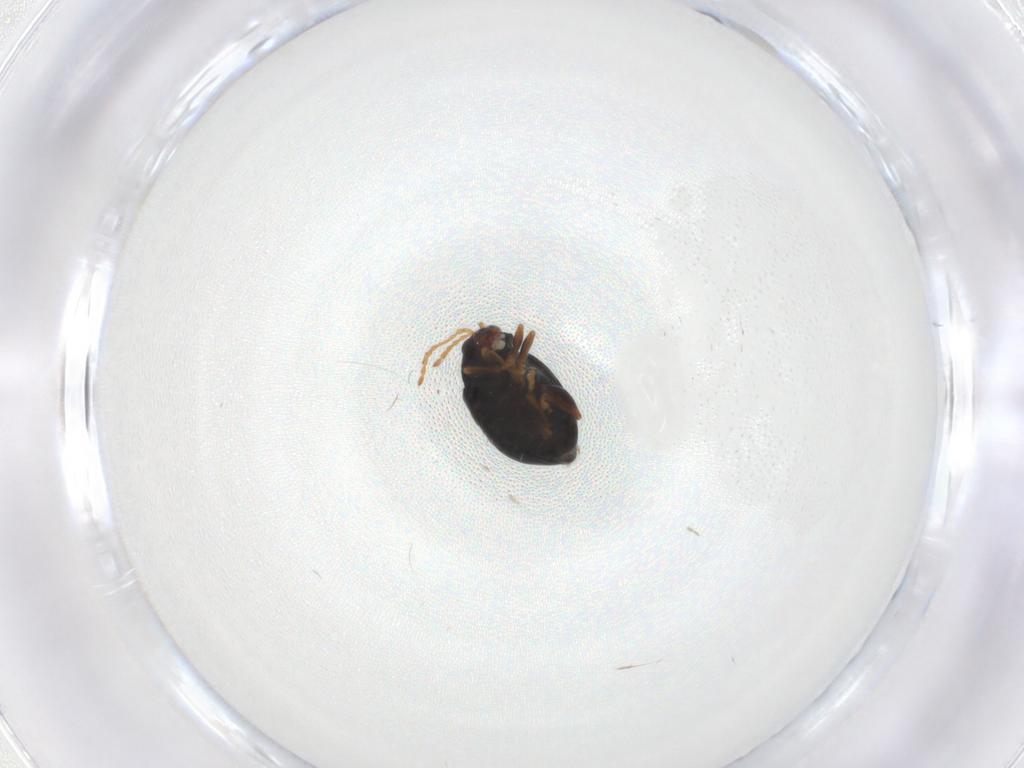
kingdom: Animalia
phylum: Arthropoda
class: Insecta
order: Coleoptera
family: Chrysomelidae
